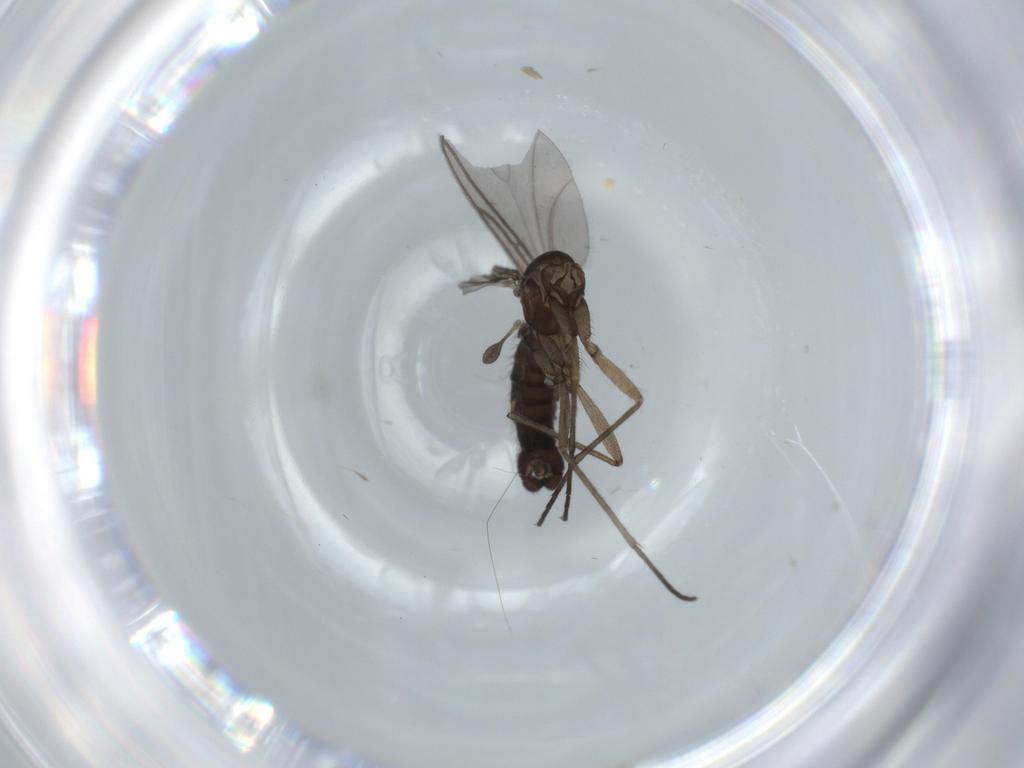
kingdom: Animalia
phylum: Arthropoda
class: Insecta
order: Diptera
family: Sciaridae
